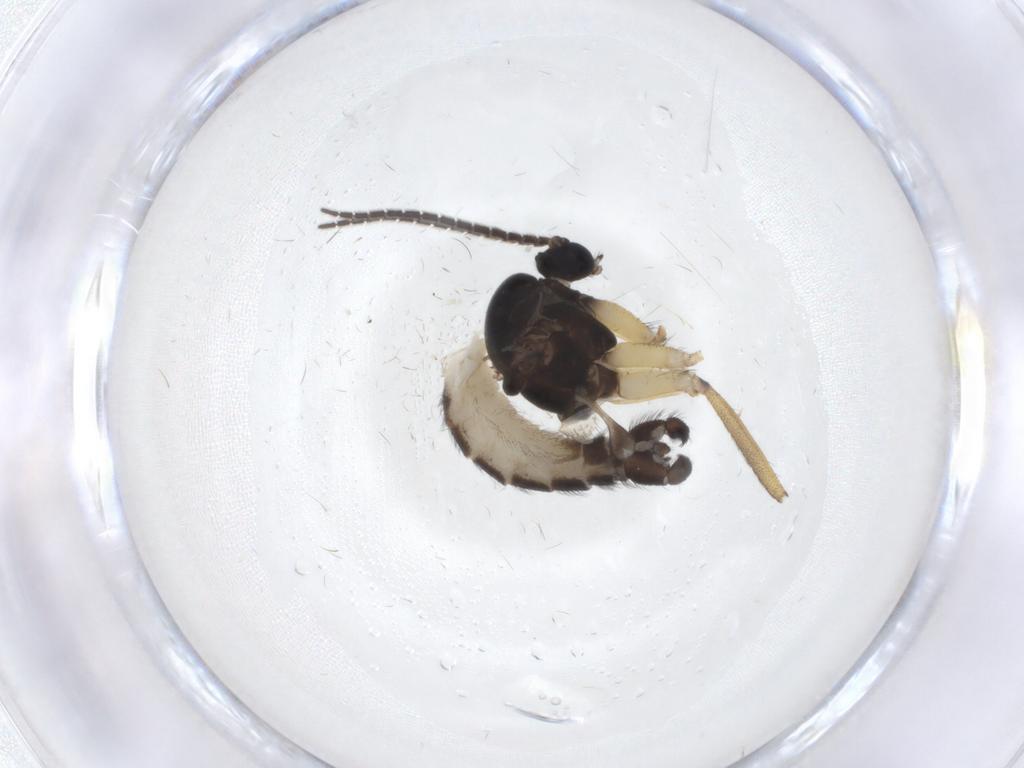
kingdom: Animalia
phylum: Arthropoda
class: Insecta
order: Diptera
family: Sciaridae
